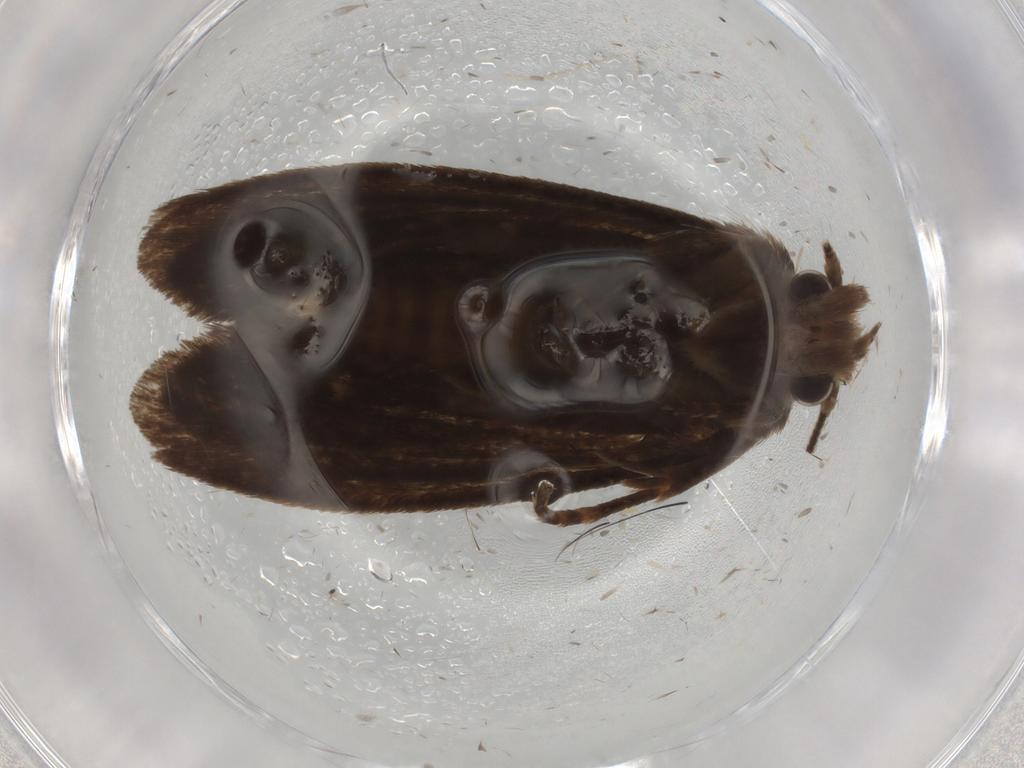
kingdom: Animalia
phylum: Arthropoda
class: Insecta
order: Lepidoptera
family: Tineidae
